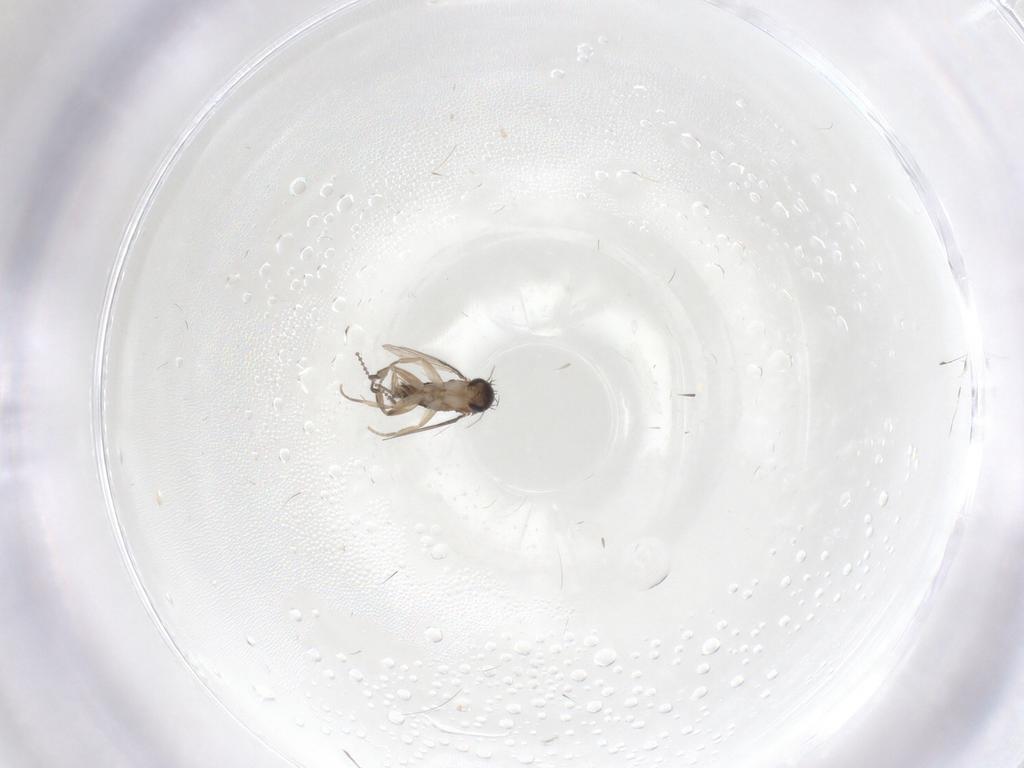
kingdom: Animalia
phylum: Arthropoda
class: Insecta
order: Diptera
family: Phoridae
